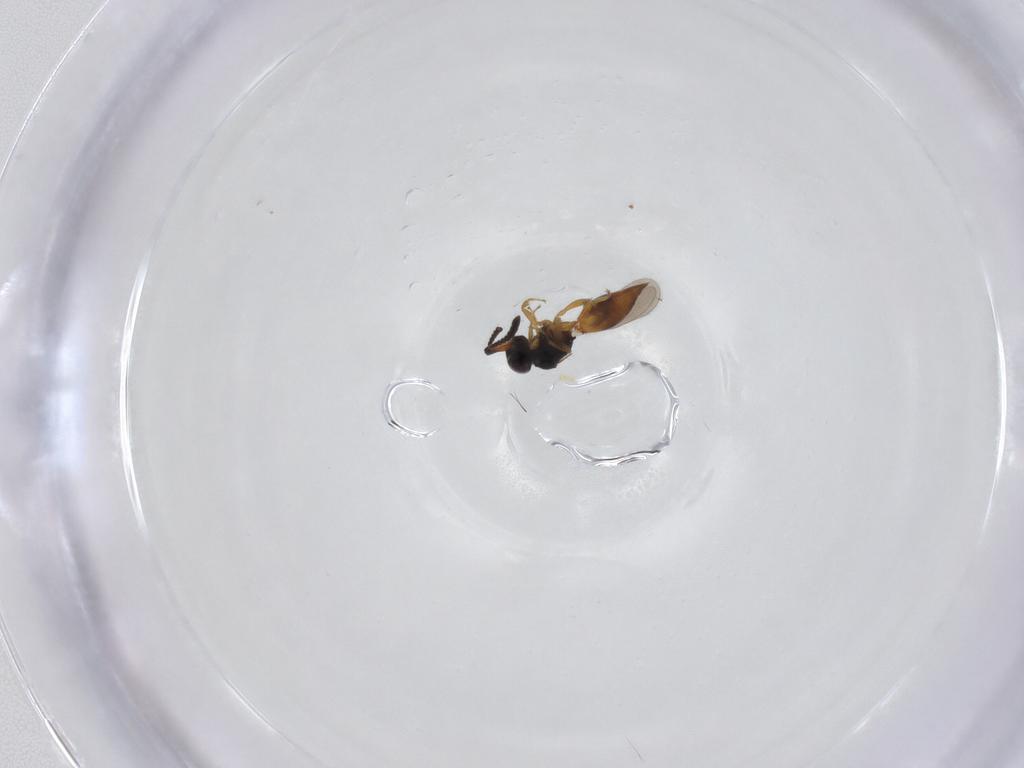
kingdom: Animalia
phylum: Arthropoda
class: Insecta
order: Hymenoptera
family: Ceraphronidae
